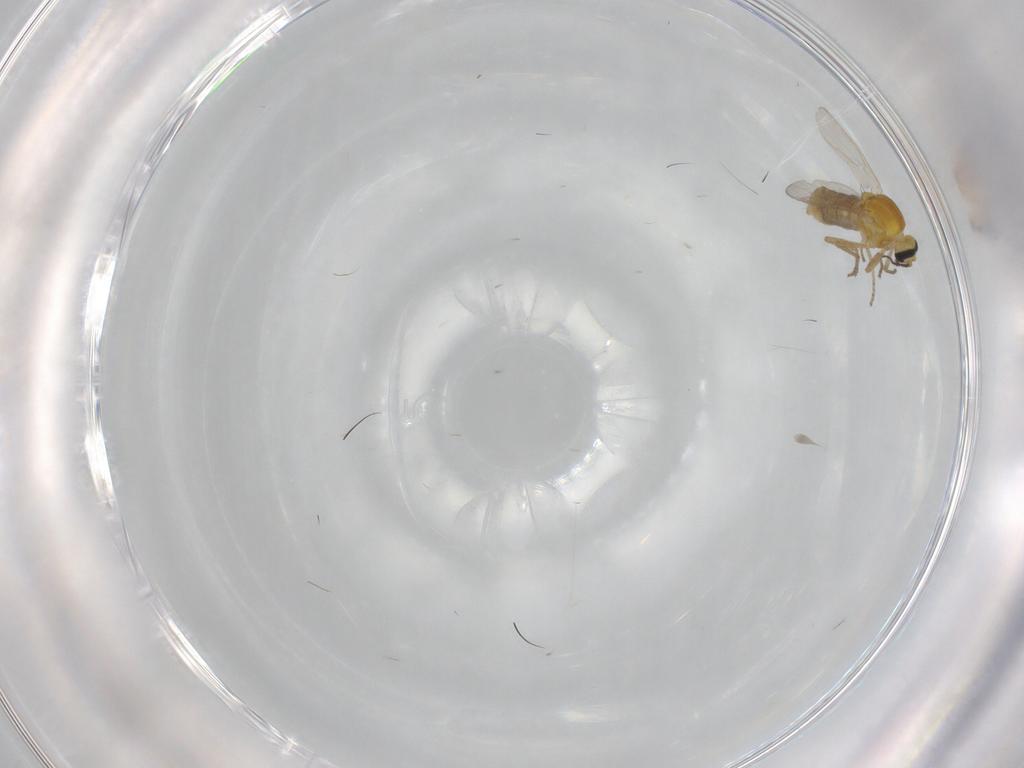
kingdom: Animalia
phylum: Arthropoda
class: Insecta
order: Diptera
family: Ceratopogonidae
